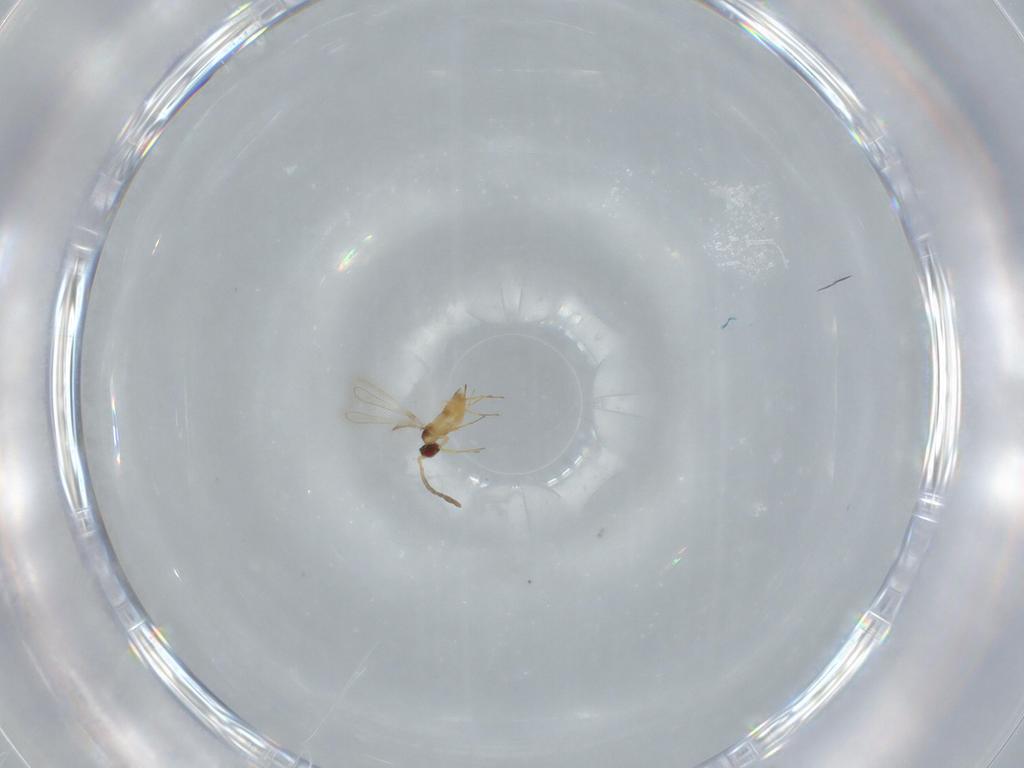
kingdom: Animalia
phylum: Arthropoda
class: Insecta
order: Hymenoptera
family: Mymaridae
